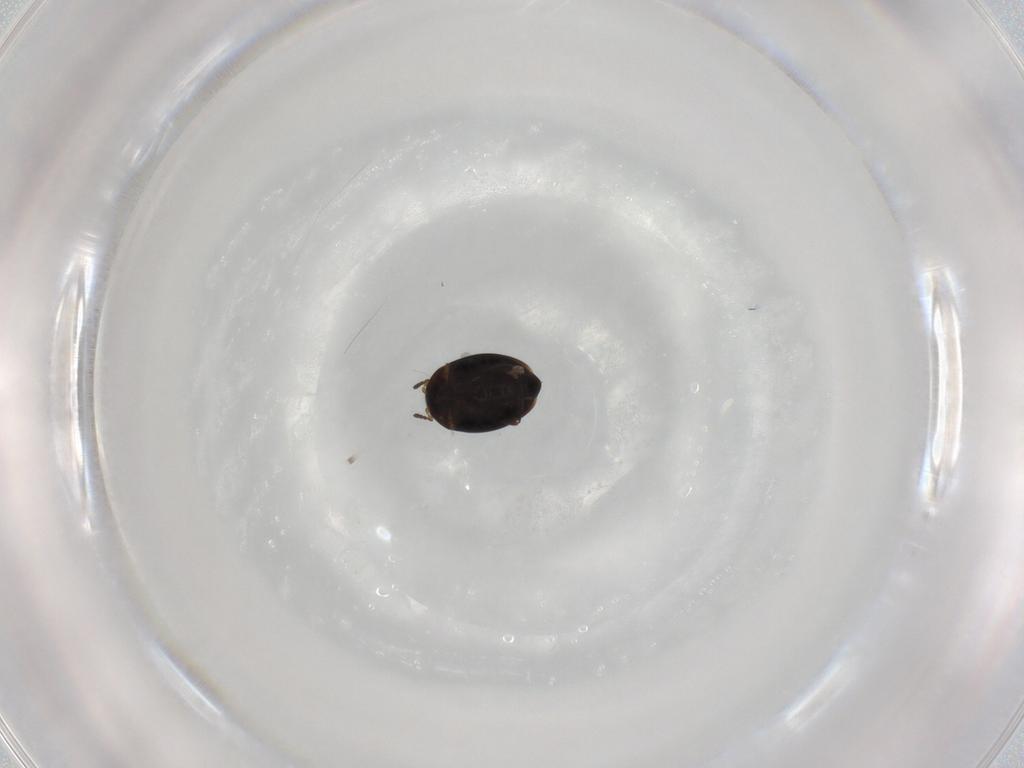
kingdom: Animalia
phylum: Arthropoda
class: Insecta
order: Coleoptera
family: Corylophidae
